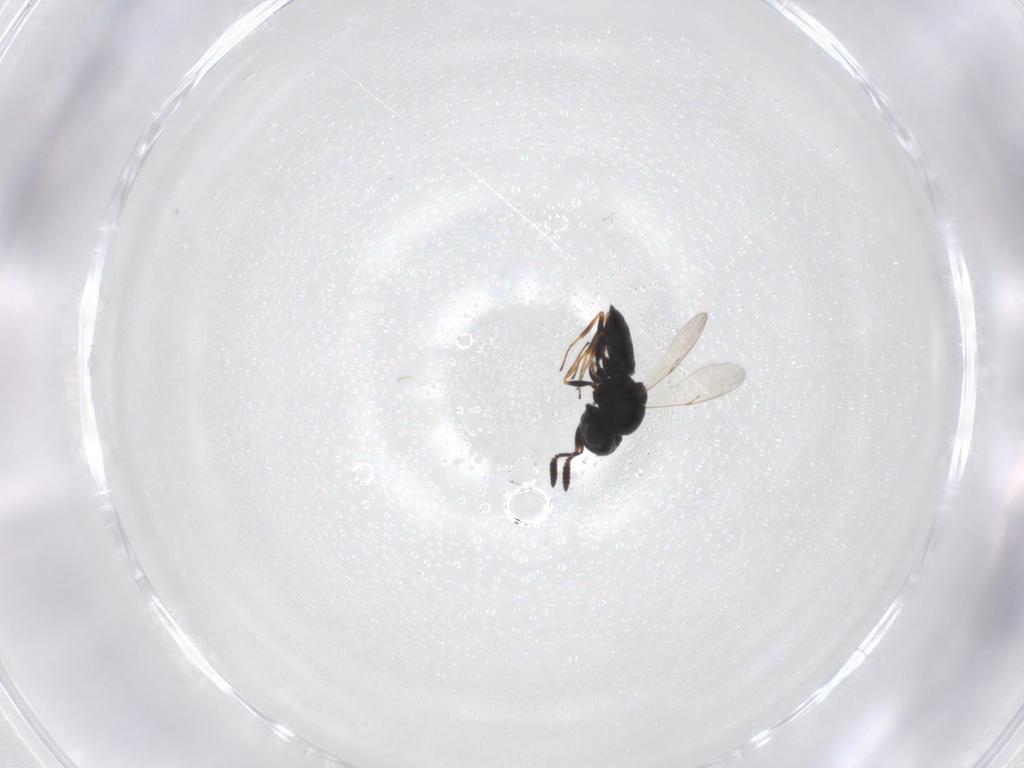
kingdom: Animalia
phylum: Arthropoda
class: Insecta
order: Hymenoptera
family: Scelionidae
